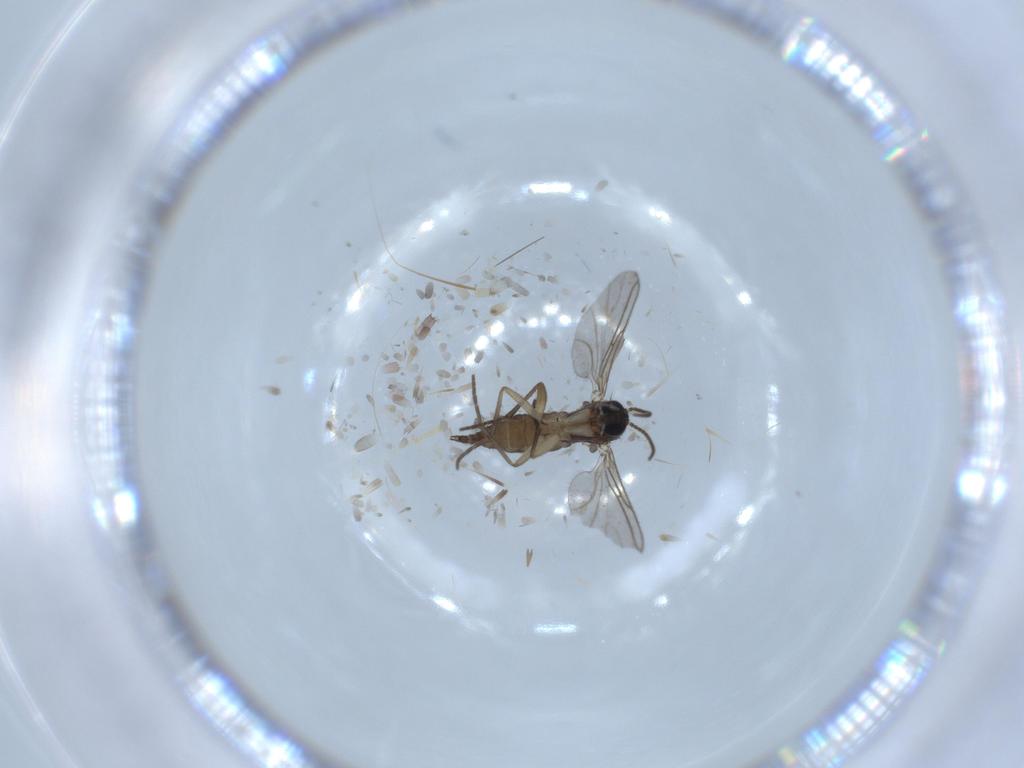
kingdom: Animalia
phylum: Arthropoda
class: Insecta
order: Diptera
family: Sciaridae
